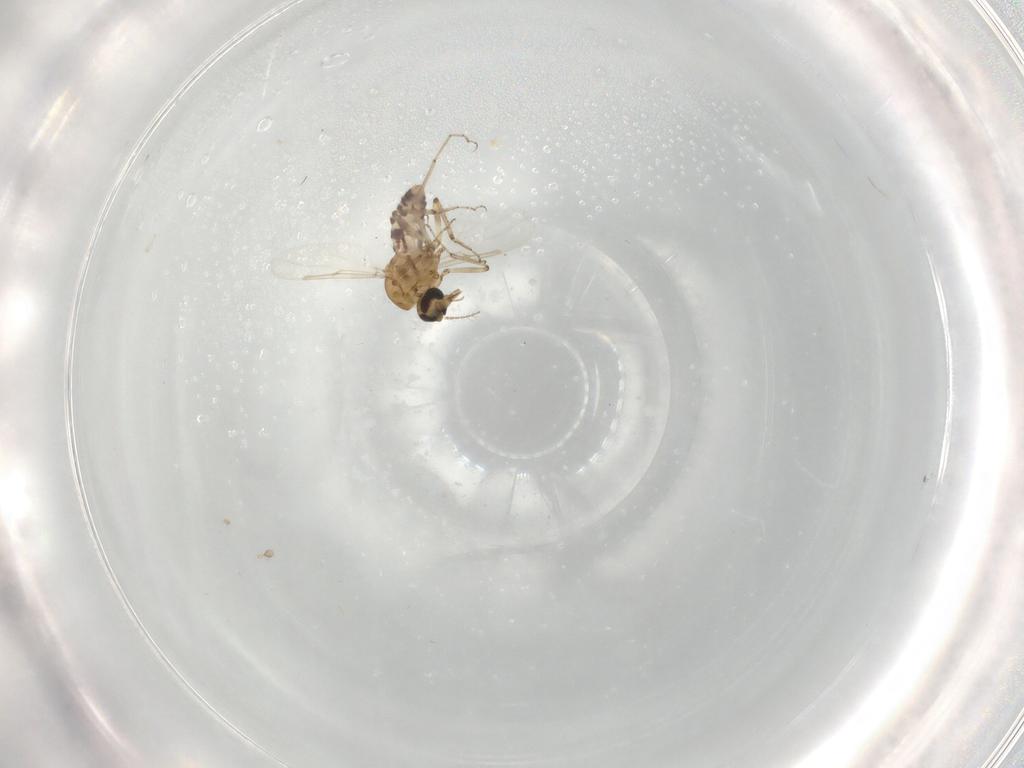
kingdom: Animalia
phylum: Arthropoda
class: Insecta
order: Diptera
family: Ceratopogonidae
